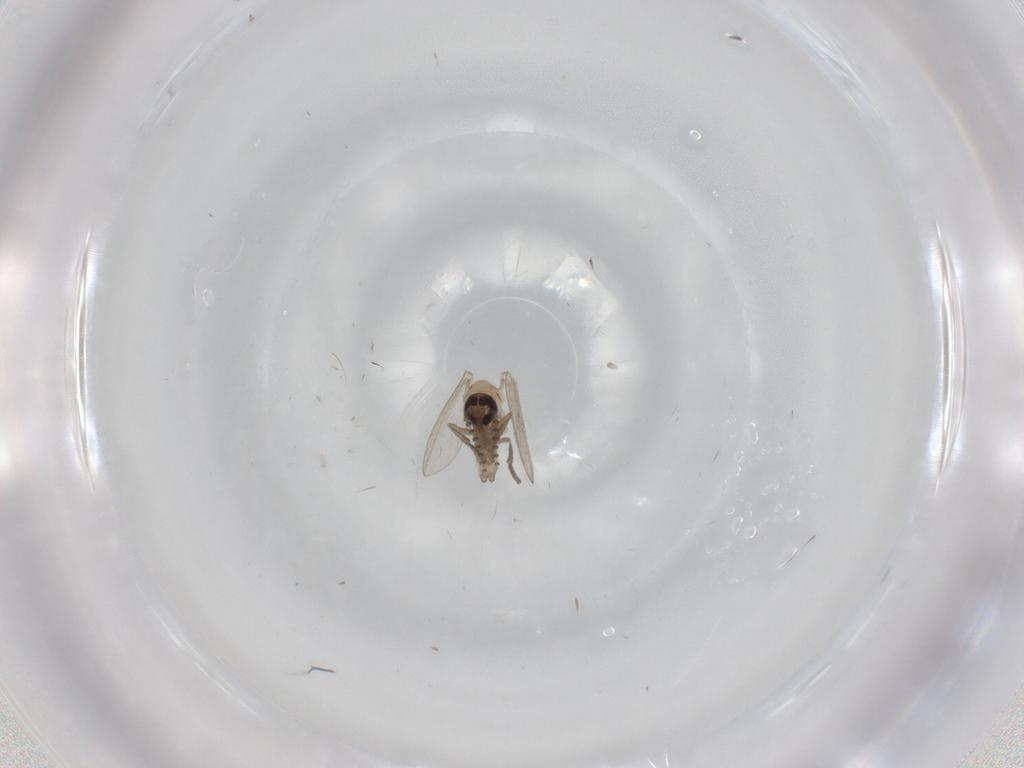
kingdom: Animalia
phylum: Arthropoda
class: Insecta
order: Diptera
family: Psychodidae
